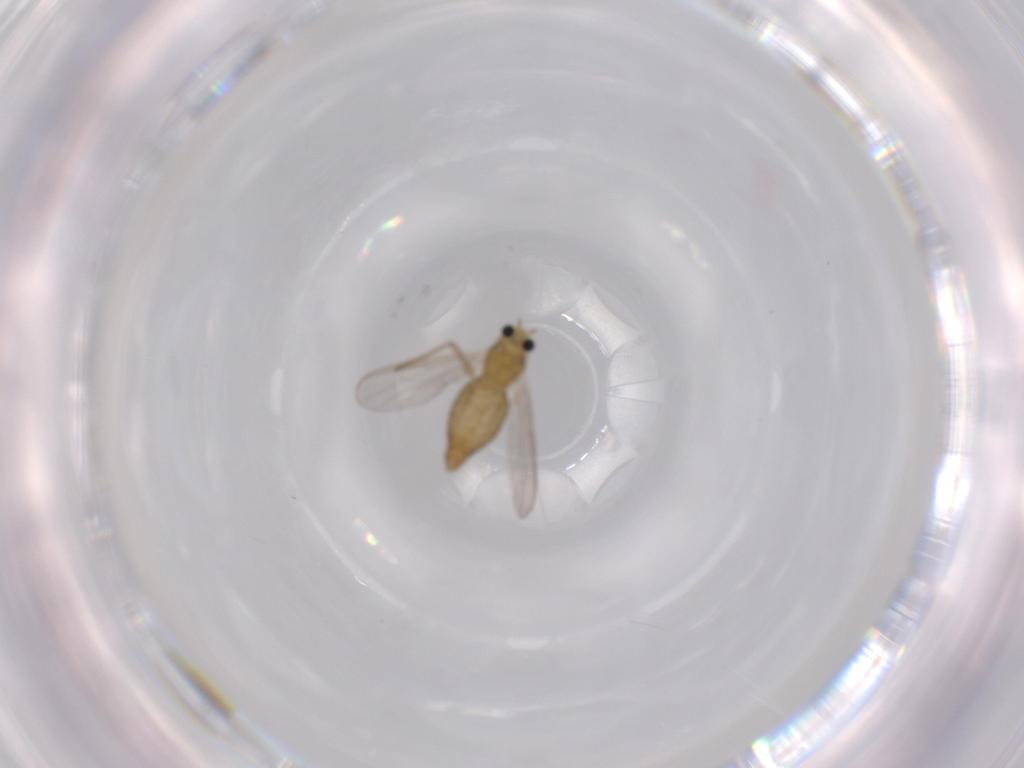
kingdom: Animalia
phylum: Arthropoda
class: Insecta
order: Diptera
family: Chironomidae
